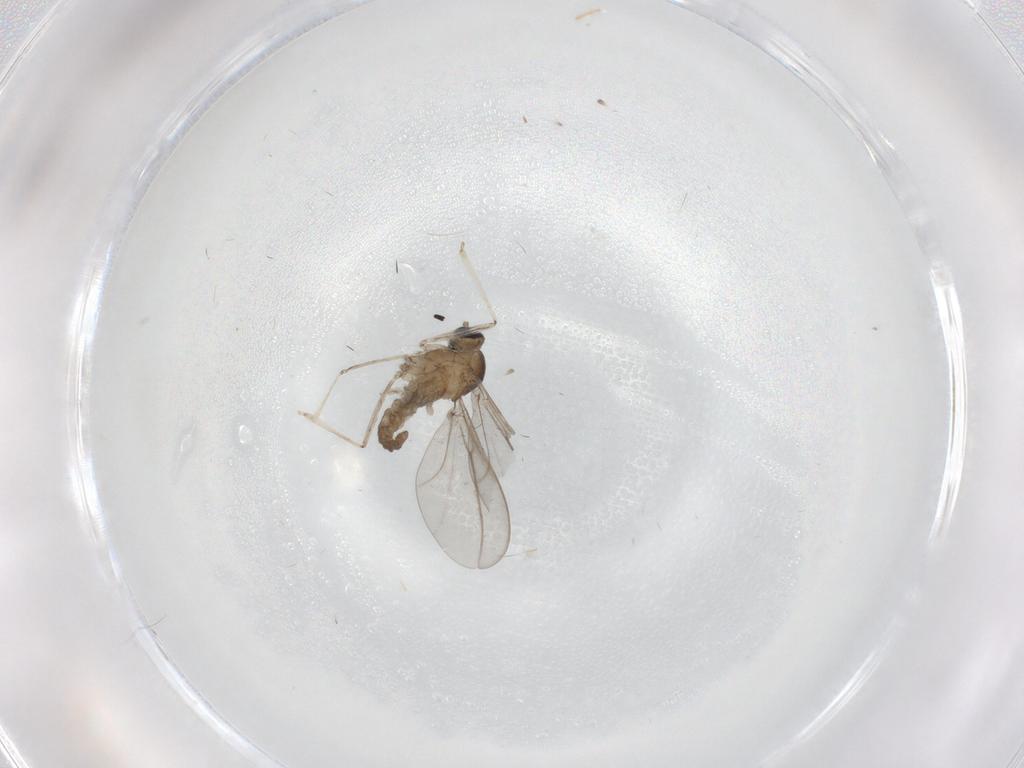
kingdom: Animalia
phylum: Arthropoda
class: Insecta
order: Diptera
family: Cecidomyiidae
